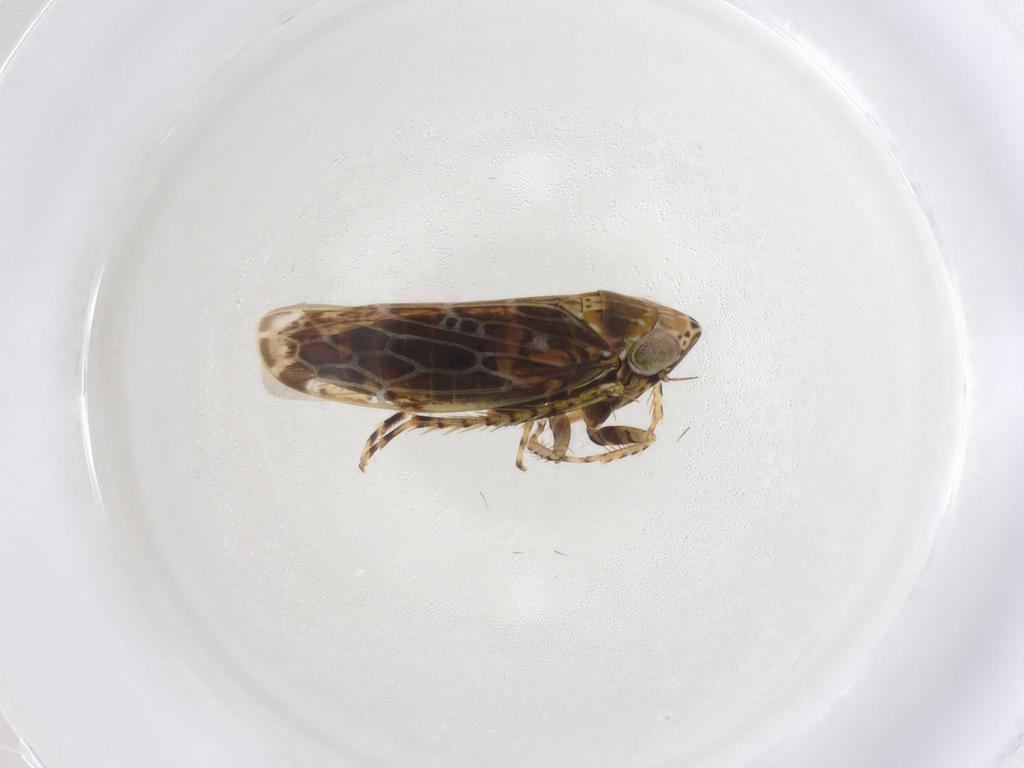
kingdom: Animalia
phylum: Arthropoda
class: Insecta
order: Hemiptera
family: Cicadellidae
